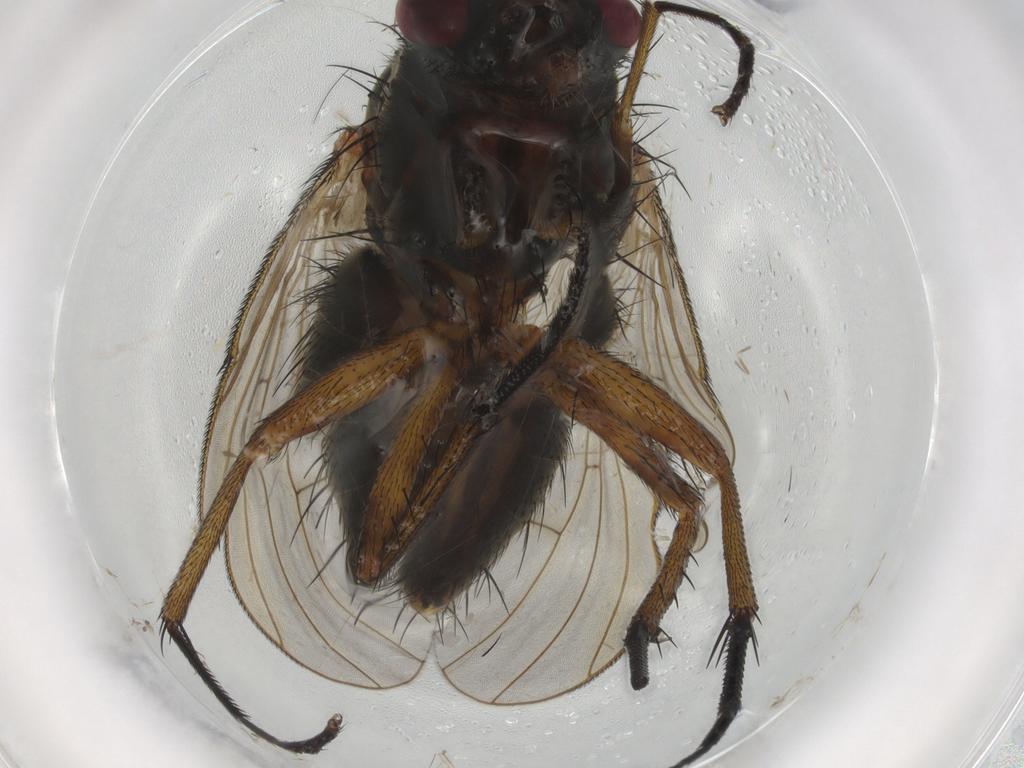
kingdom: Animalia
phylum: Arthropoda
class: Insecta
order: Diptera
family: Muscidae
